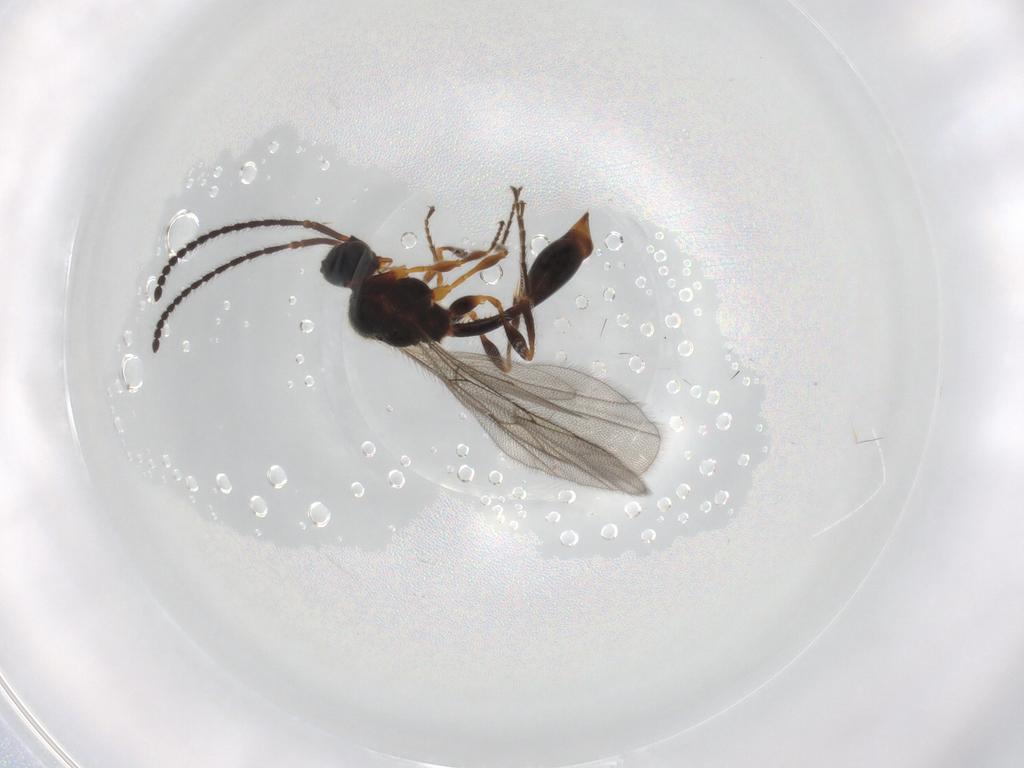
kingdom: Animalia
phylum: Arthropoda
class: Insecta
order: Hymenoptera
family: Diapriidae
